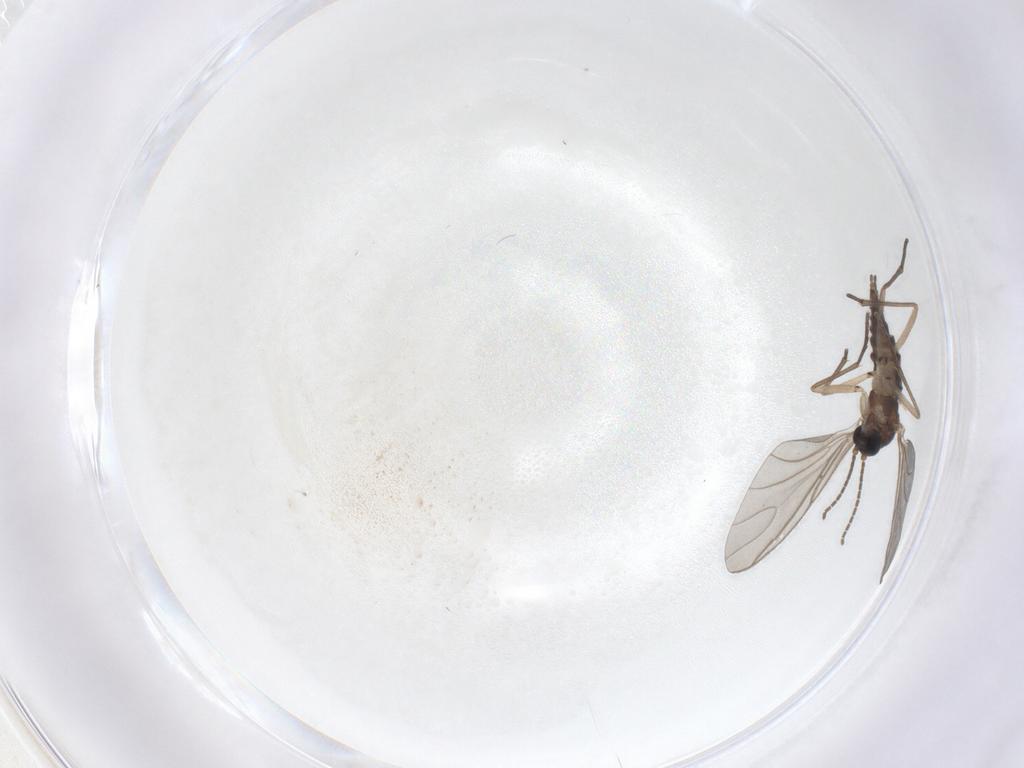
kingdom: Animalia
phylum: Arthropoda
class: Insecta
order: Diptera
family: Sciaridae
